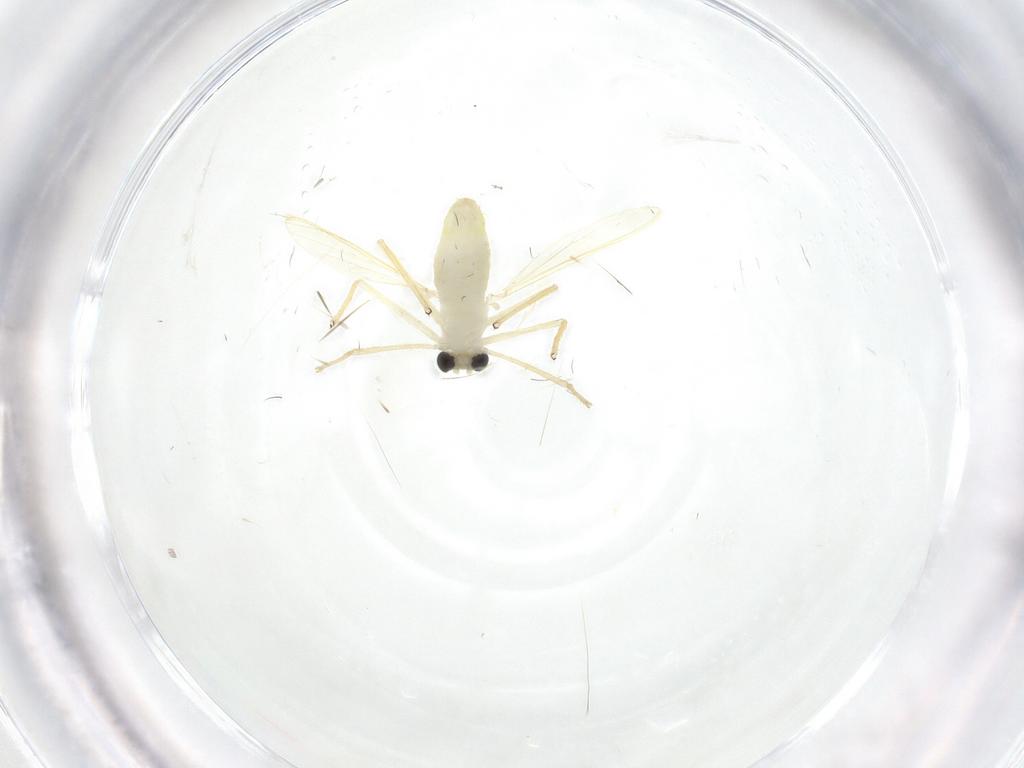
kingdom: Animalia
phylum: Arthropoda
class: Insecta
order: Diptera
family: Chironomidae
